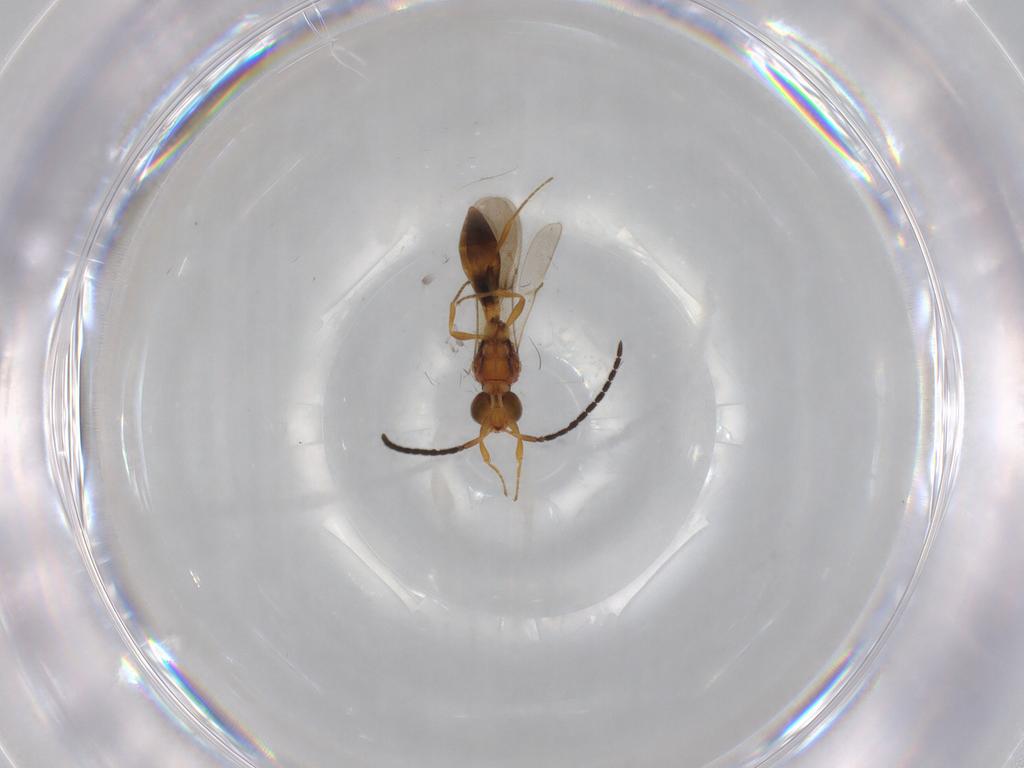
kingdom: Animalia
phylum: Arthropoda
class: Insecta
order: Hymenoptera
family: Scelionidae
